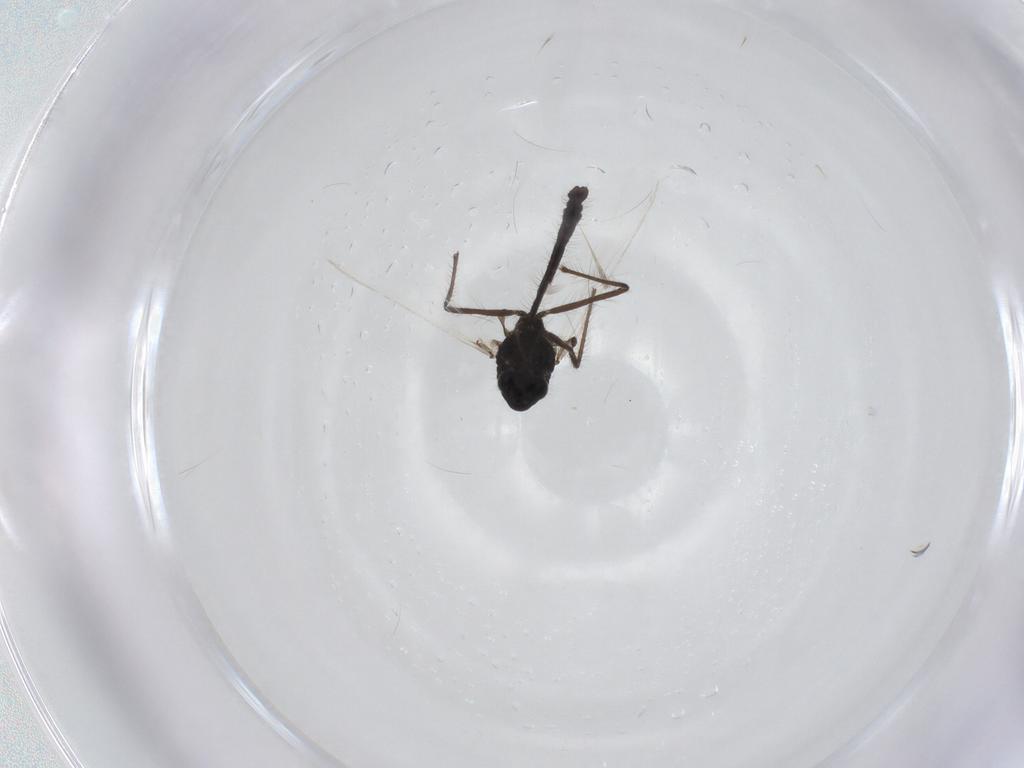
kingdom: Animalia
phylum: Arthropoda
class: Insecta
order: Diptera
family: Chironomidae
